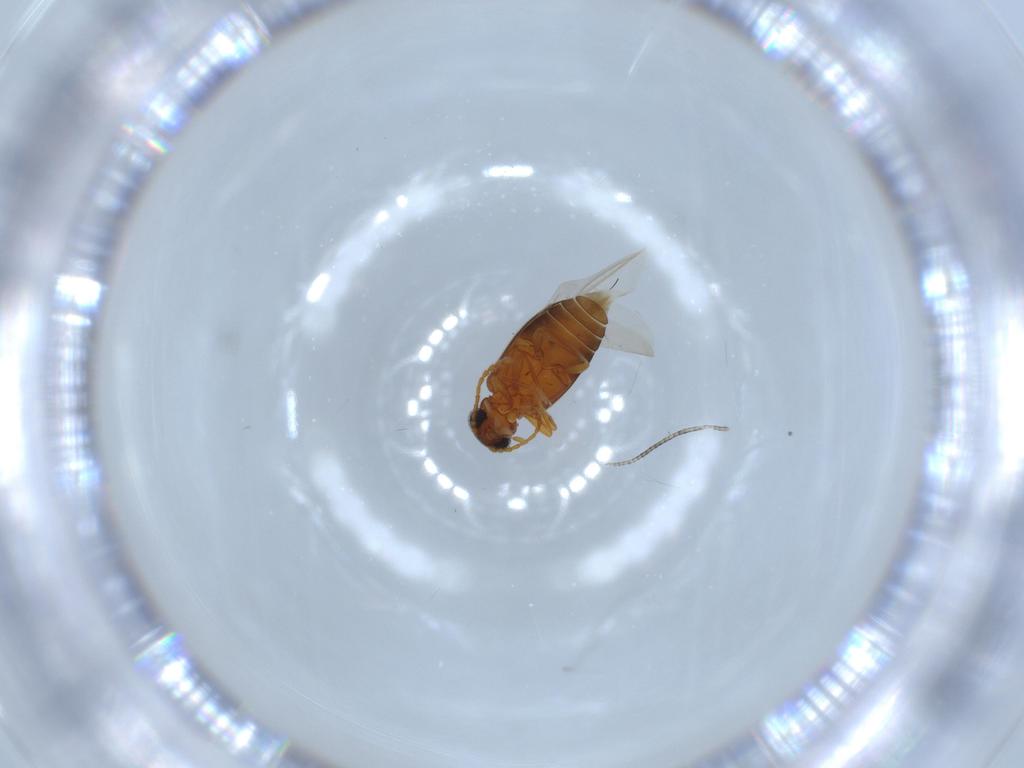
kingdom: Animalia
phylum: Arthropoda
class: Insecta
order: Coleoptera
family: Aderidae
